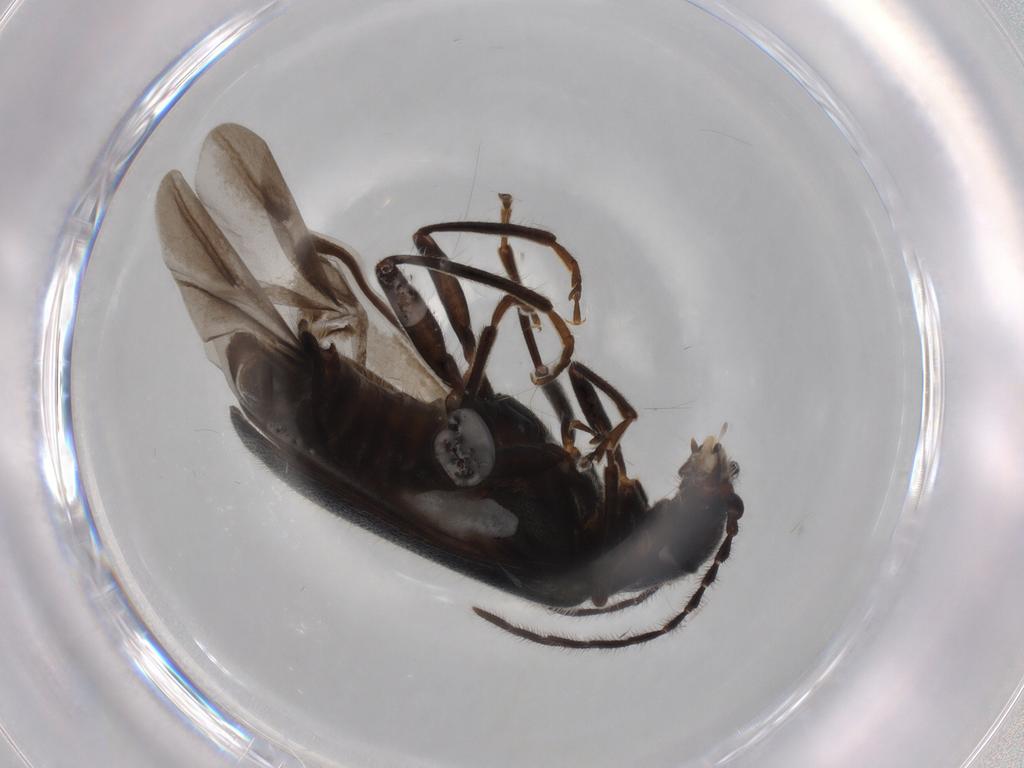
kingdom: Animalia
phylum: Arthropoda
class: Insecta
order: Coleoptera
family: Melyridae
